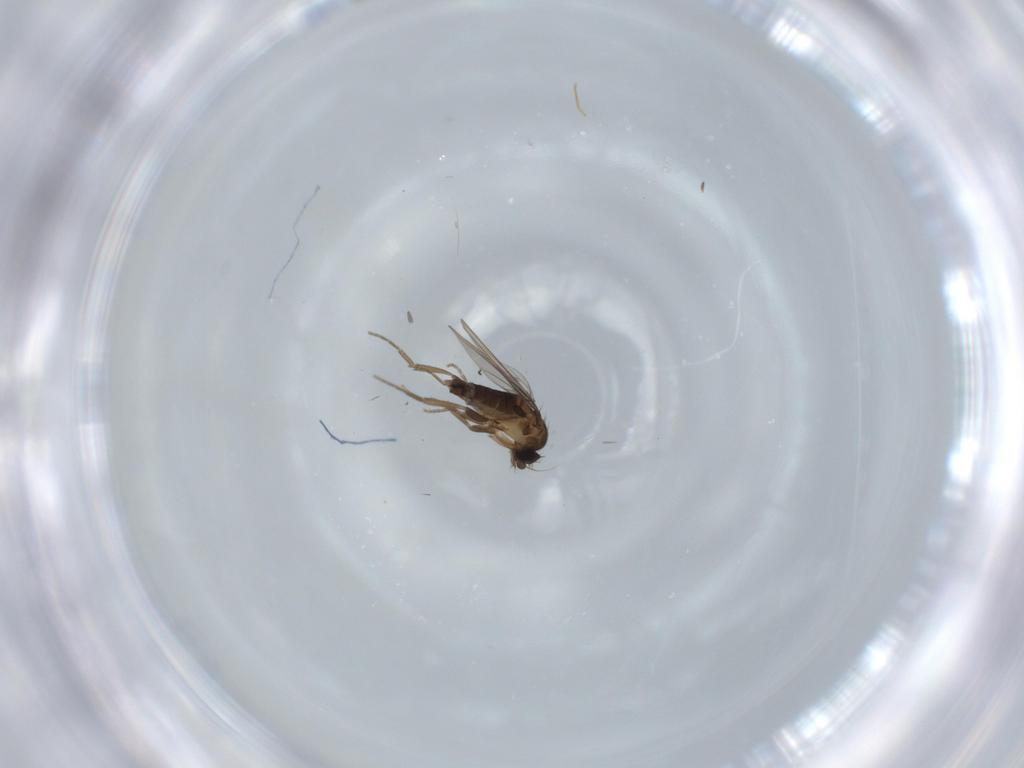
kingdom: Animalia
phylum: Arthropoda
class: Insecta
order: Diptera
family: Phoridae
